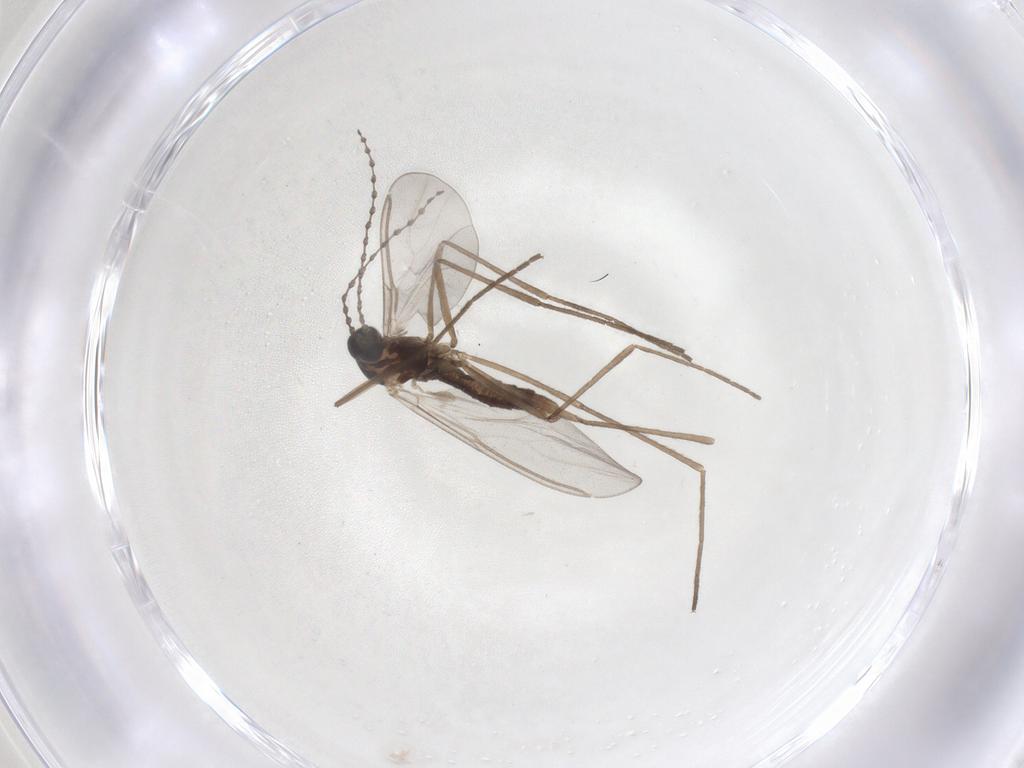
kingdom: Animalia
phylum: Arthropoda
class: Insecta
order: Diptera
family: Cecidomyiidae
